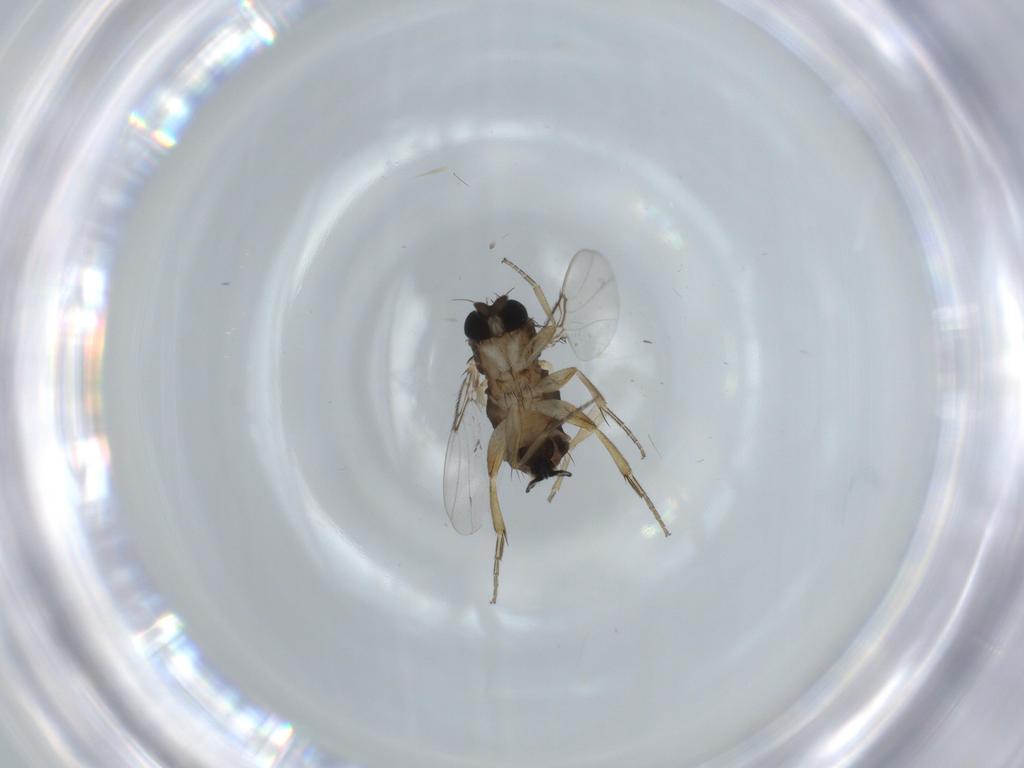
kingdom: Animalia
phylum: Arthropoda
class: Insecta
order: Diptera
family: Phoridae
